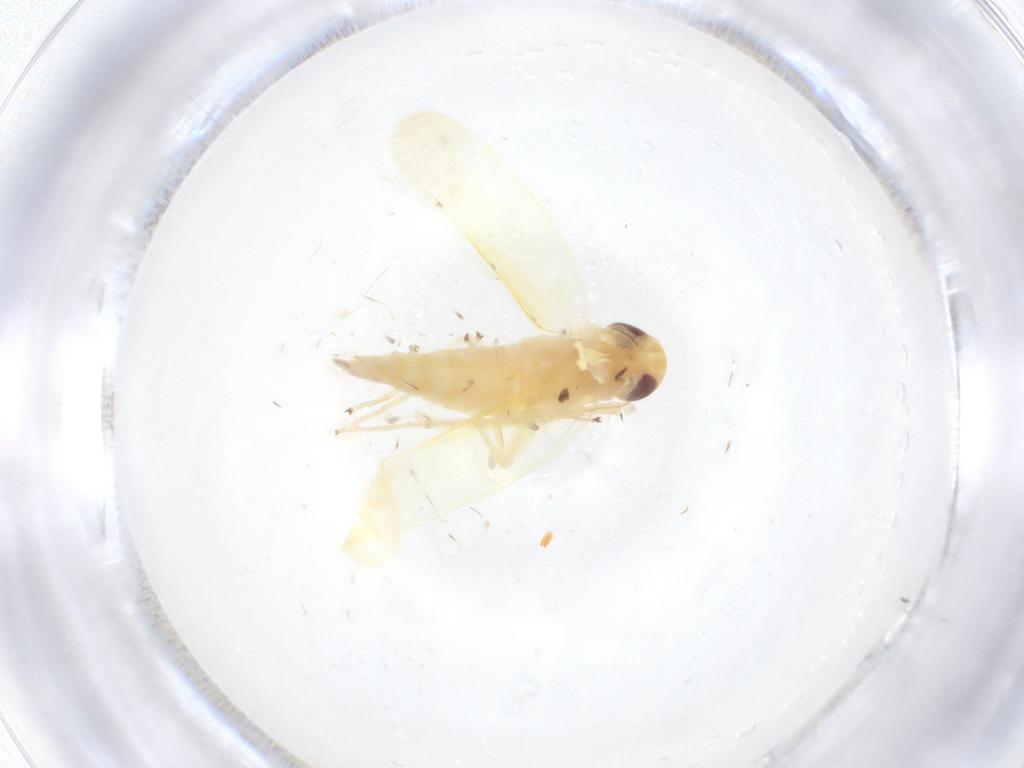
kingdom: Animalia
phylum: Arthropoda
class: Insecta
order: Hemiptera
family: Cicadellidae
